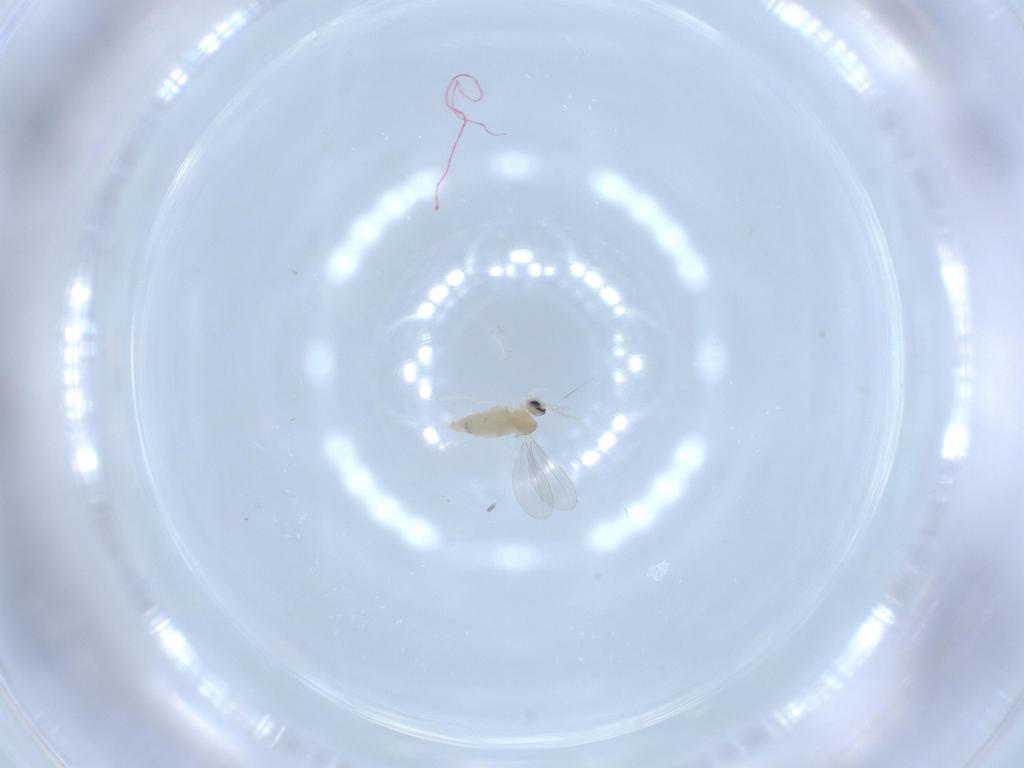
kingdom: Animalia
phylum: Arthropoda
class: Insecta
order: Diptera
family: Cecidomyiidae
